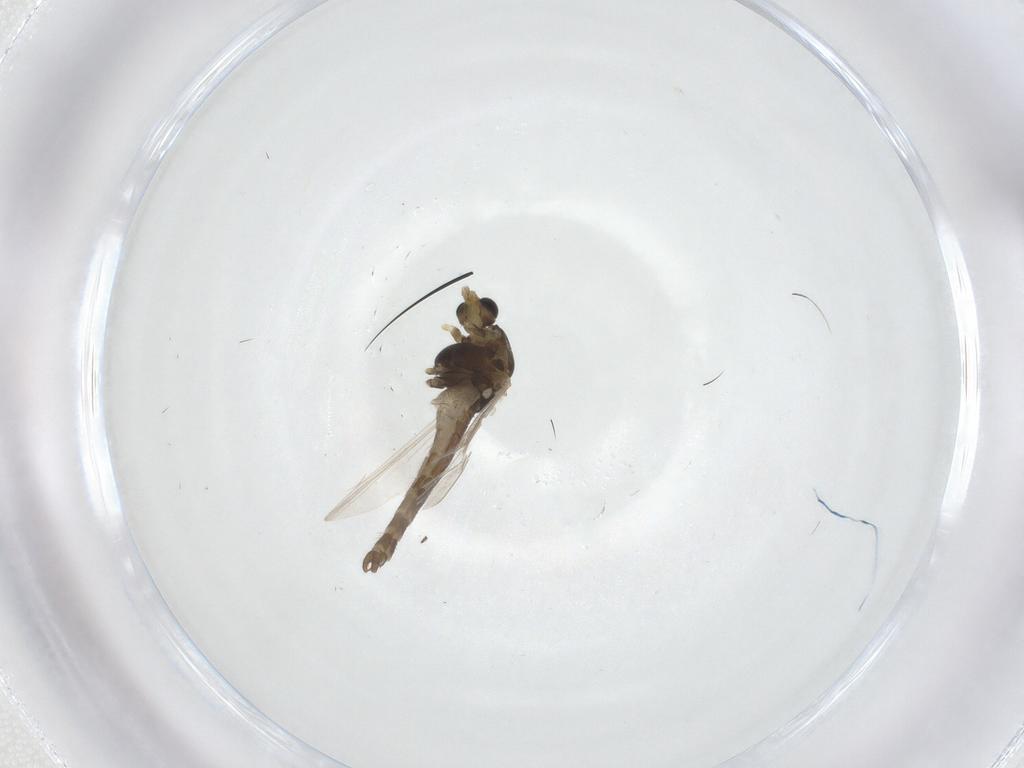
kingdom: Animalia
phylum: Arthropoda
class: Insecta
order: Diptera
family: Chironomidae
